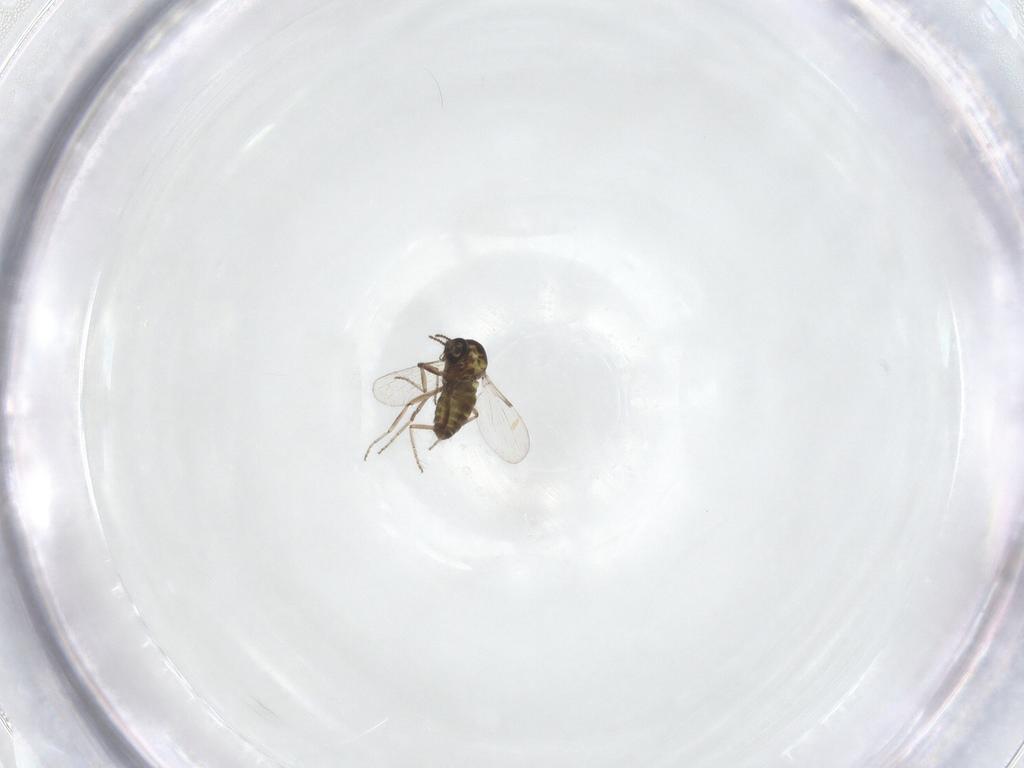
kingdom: Animalia
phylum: Arthropoda
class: Insecta
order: Diptera
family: Ceratopogonidae
